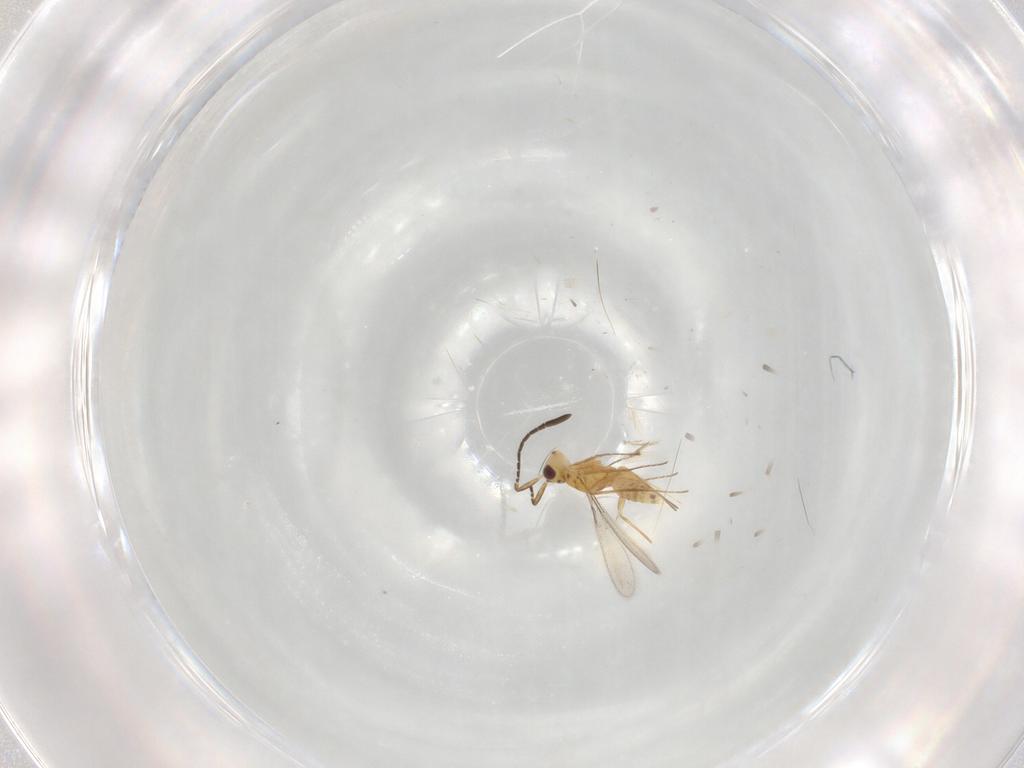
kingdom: Animalia
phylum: Arthropoda
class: Insecta
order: Hymenoptera
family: Mymaridae
